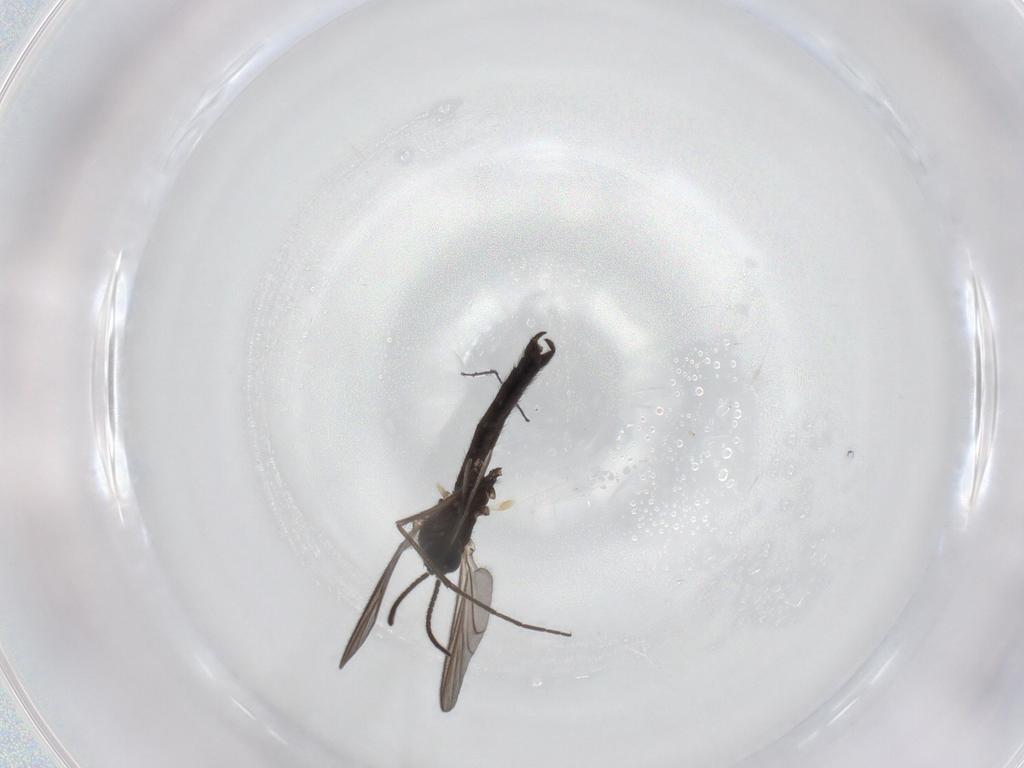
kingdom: Animalia
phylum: Arthropoda
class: Insecta
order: Diptera
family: Keroplatidae
